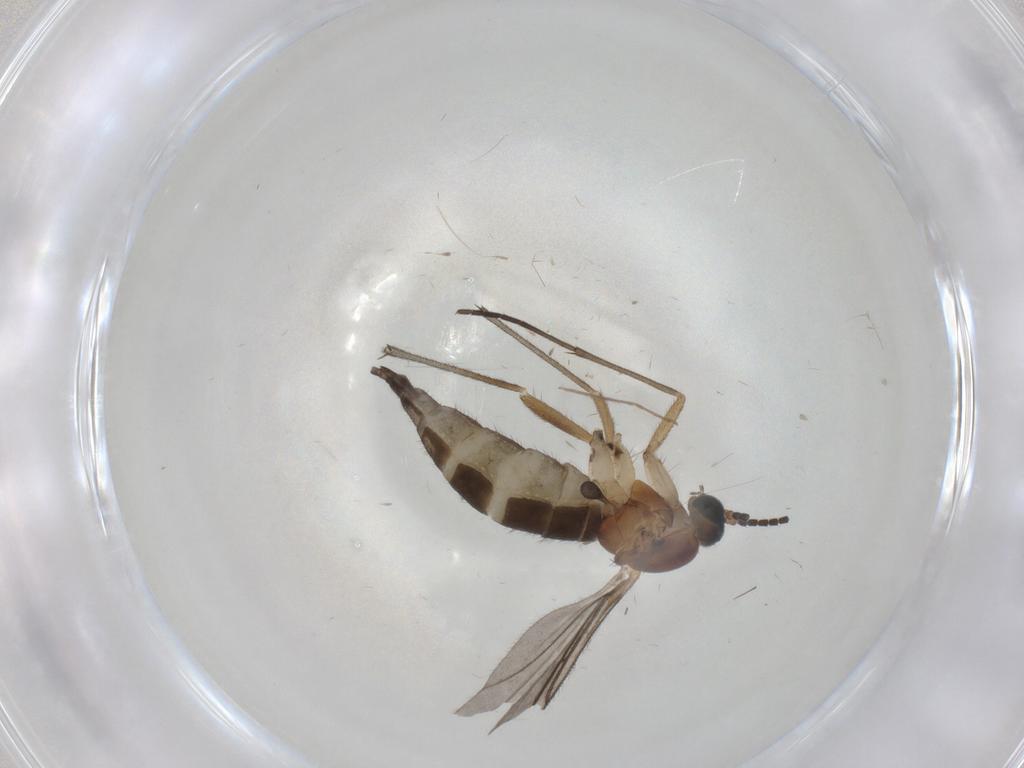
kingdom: Animalia
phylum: Arthropoda
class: Insecta
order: Diptera
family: Sciaridae
